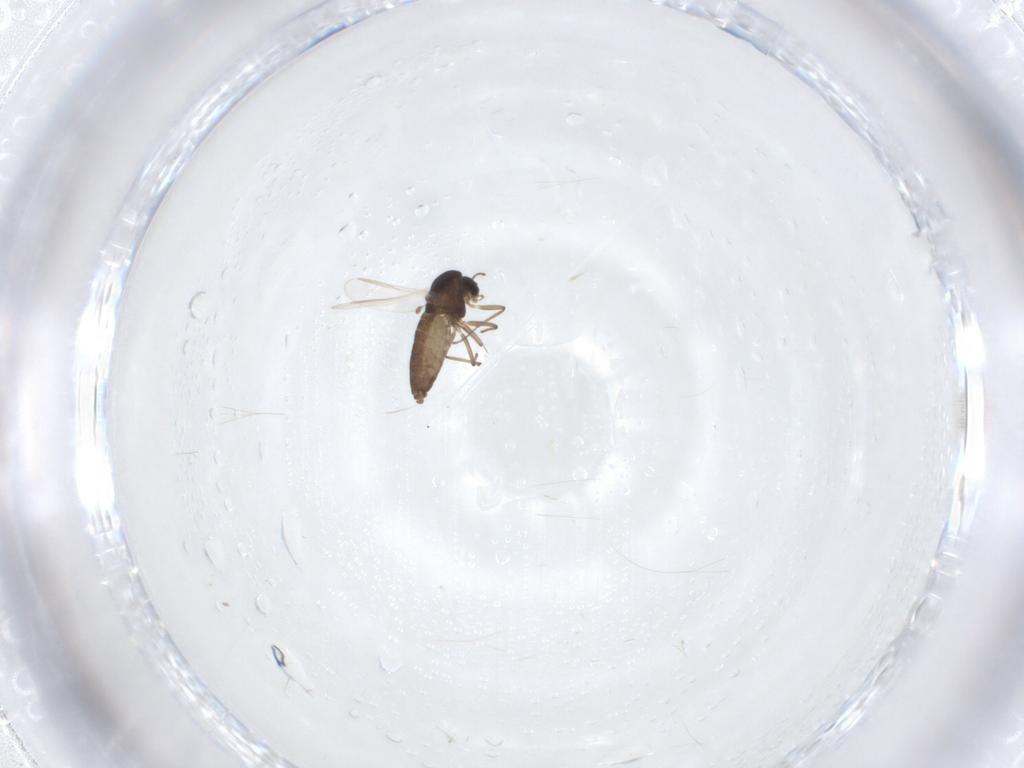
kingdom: Animalia
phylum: Arthropoda
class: Insecta
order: Diptera
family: Chironomidae
